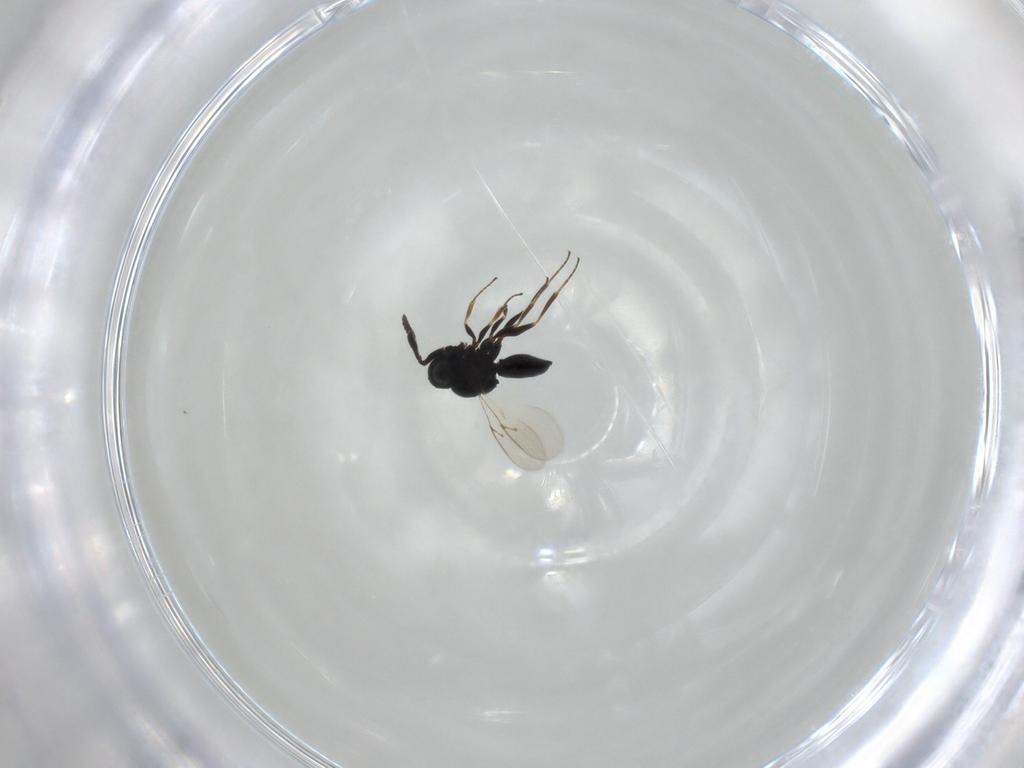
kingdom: Animalia
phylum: Arthropoda
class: Insecta
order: Hymenoptera
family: Scelionidae
